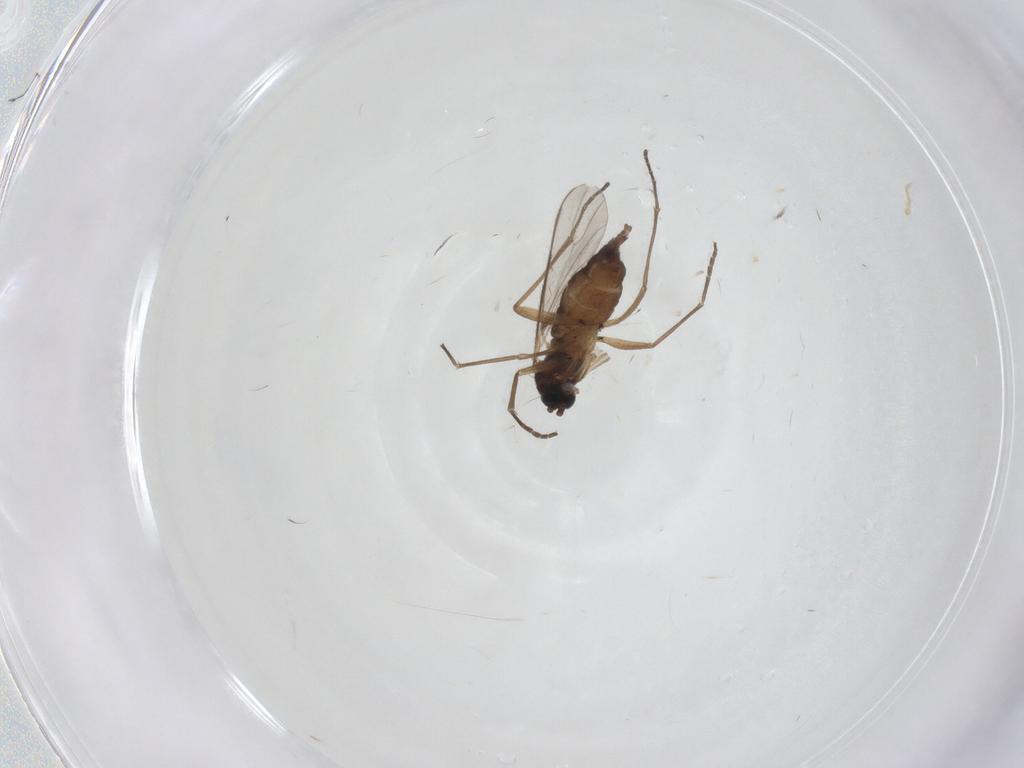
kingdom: Animalia
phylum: Arthropoda
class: Insecta
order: Diptera
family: Sciaridae
